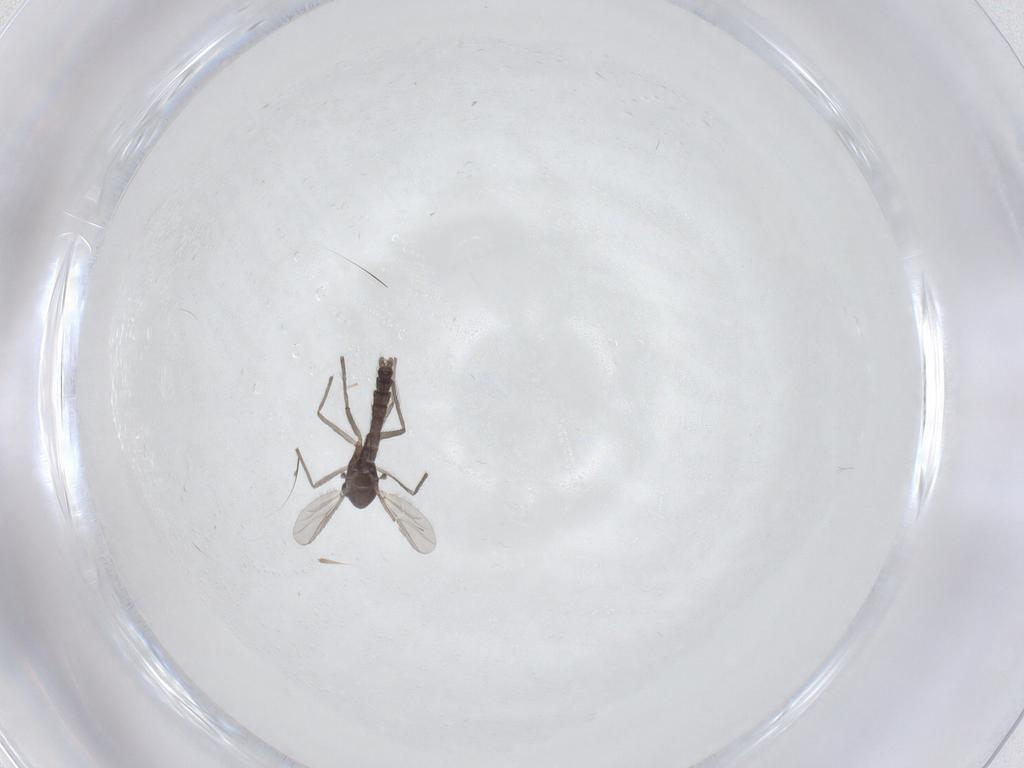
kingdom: Animalia
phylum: Arthropoda
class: Insecta
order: Diptera
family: Chironomidae
